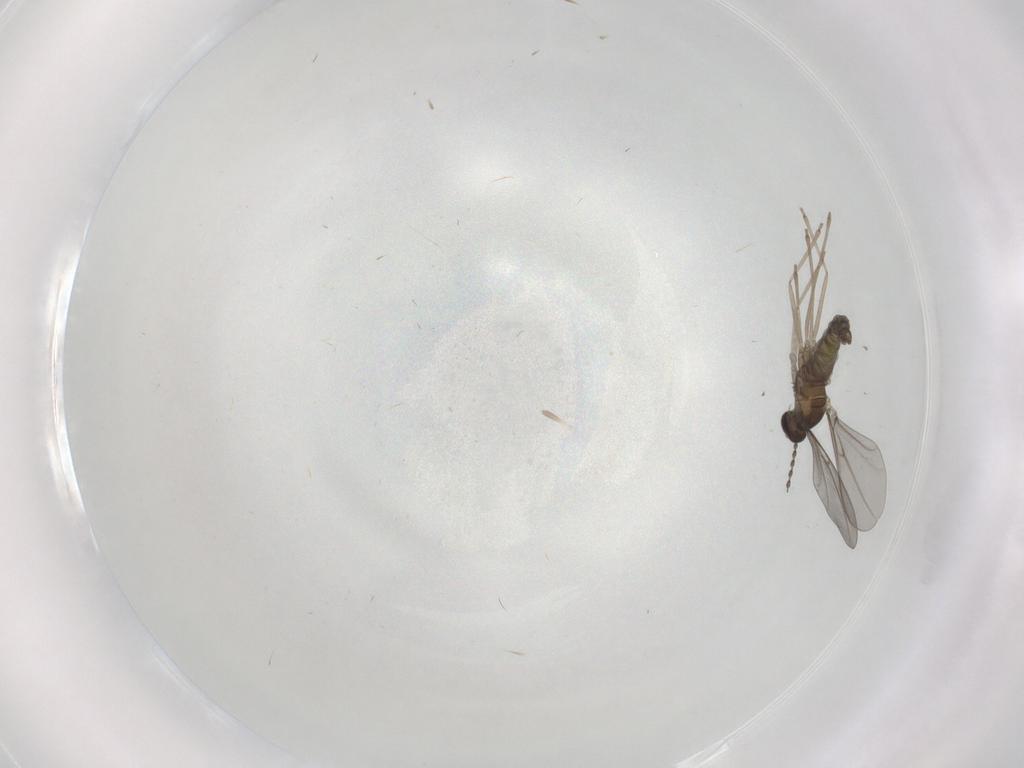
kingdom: Animalia
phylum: Arthropoda
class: Insecta
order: Diptera
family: Cecidomyiidae
